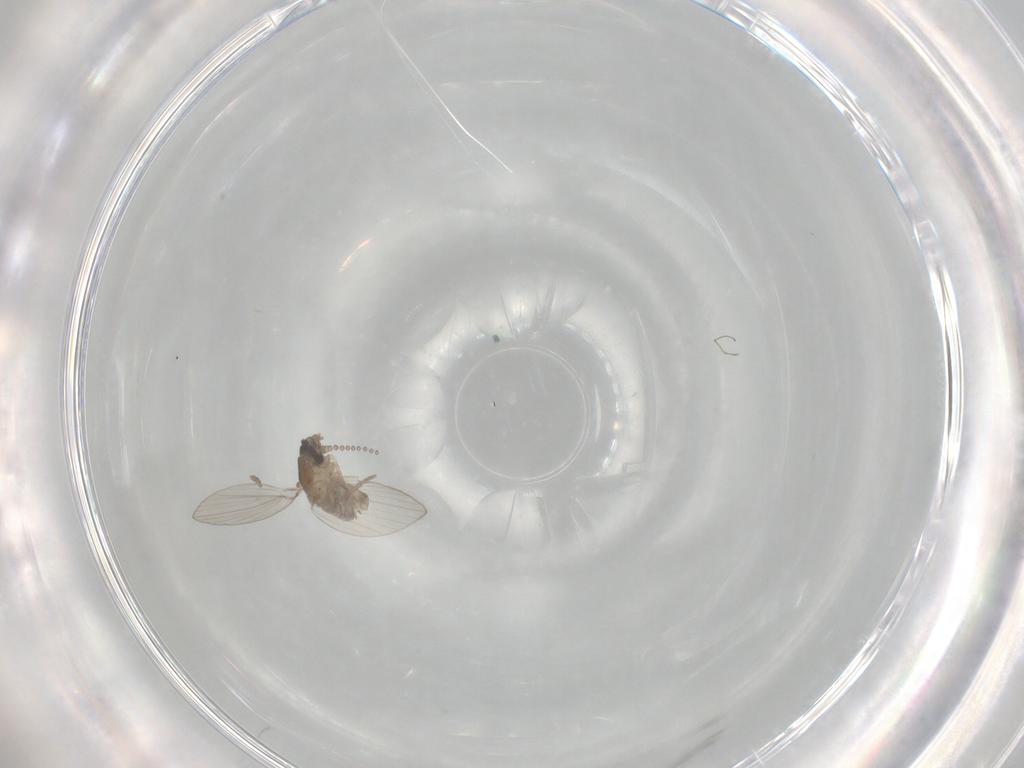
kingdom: Animalia
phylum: Arthropoda
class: Insecta
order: Diptera
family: Psychodidae
